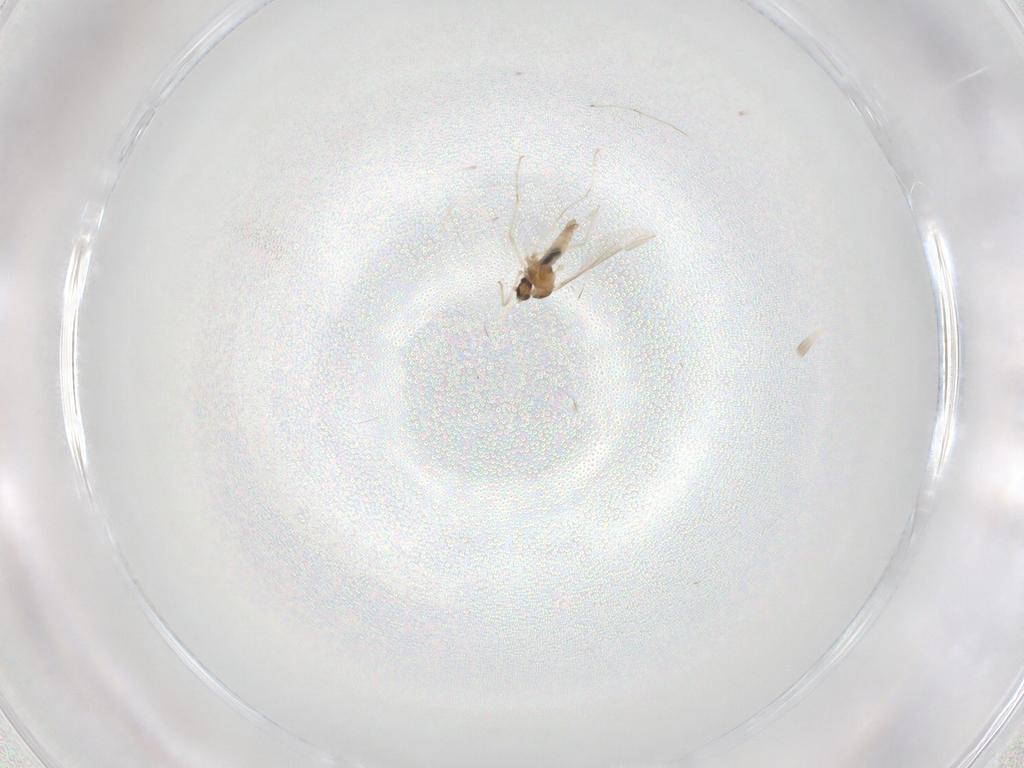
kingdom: Animalia
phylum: Arthropoda
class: Insecta
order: Diptera
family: Cecidomyiidae
